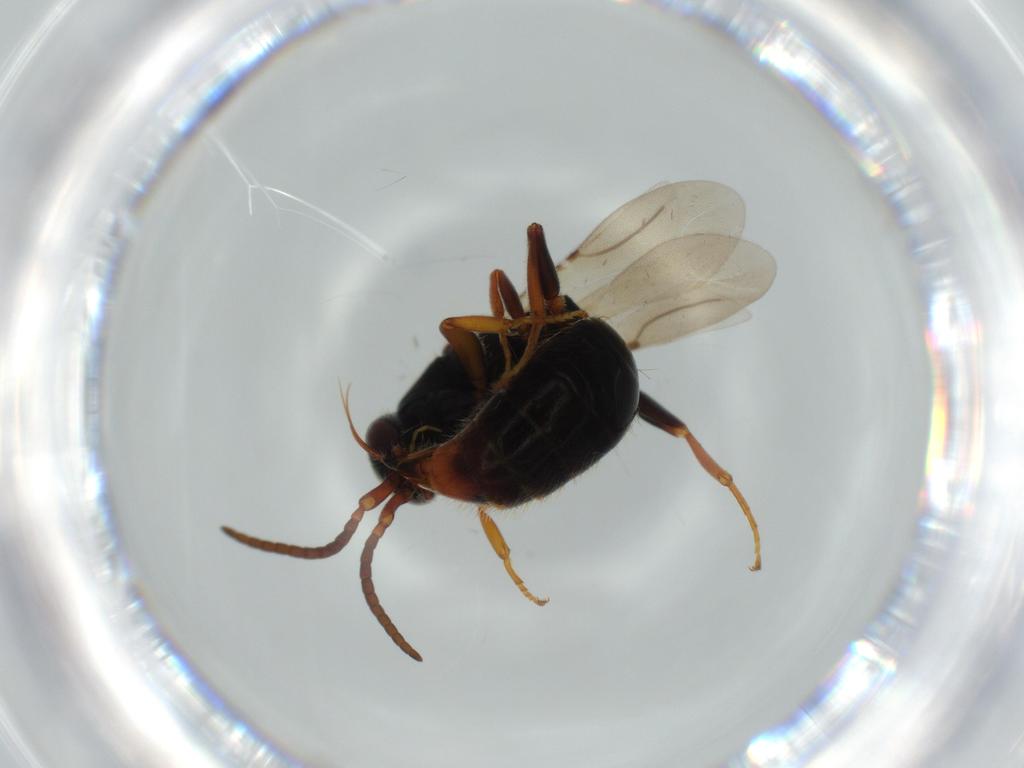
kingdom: Animalia
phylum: Arthropoda
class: Insecta
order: Hymenoptera
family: Bethylidae
